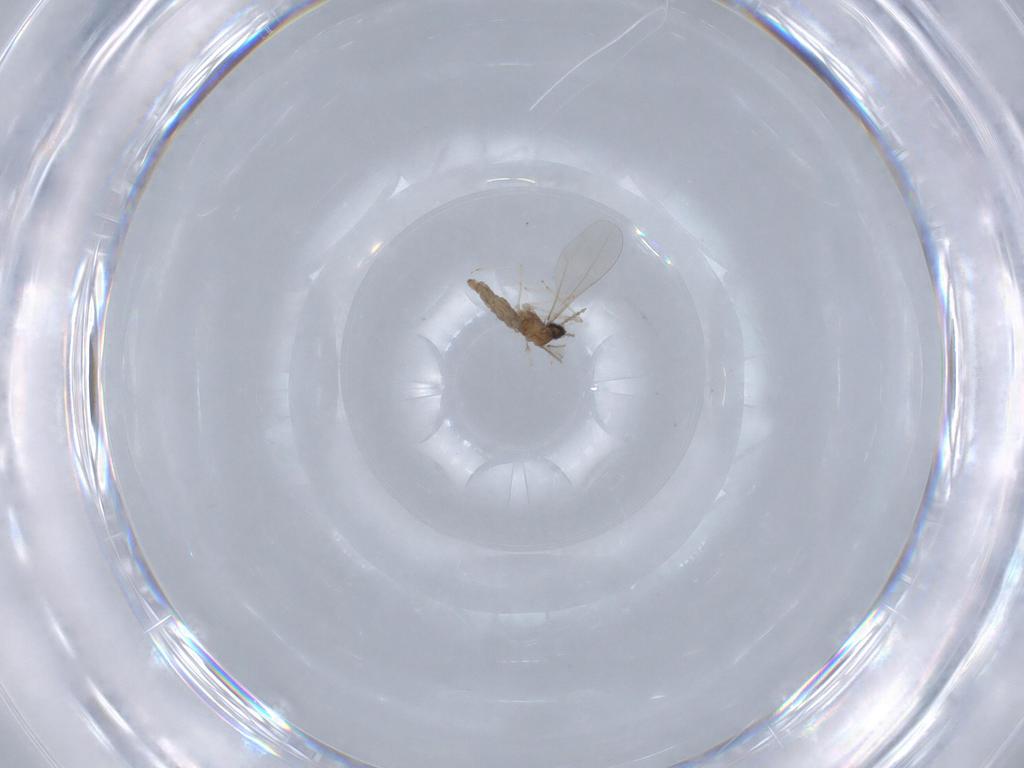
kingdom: Animalia
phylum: Arthropoda
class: Insecta
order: Diptera
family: Cecidomyiidae
